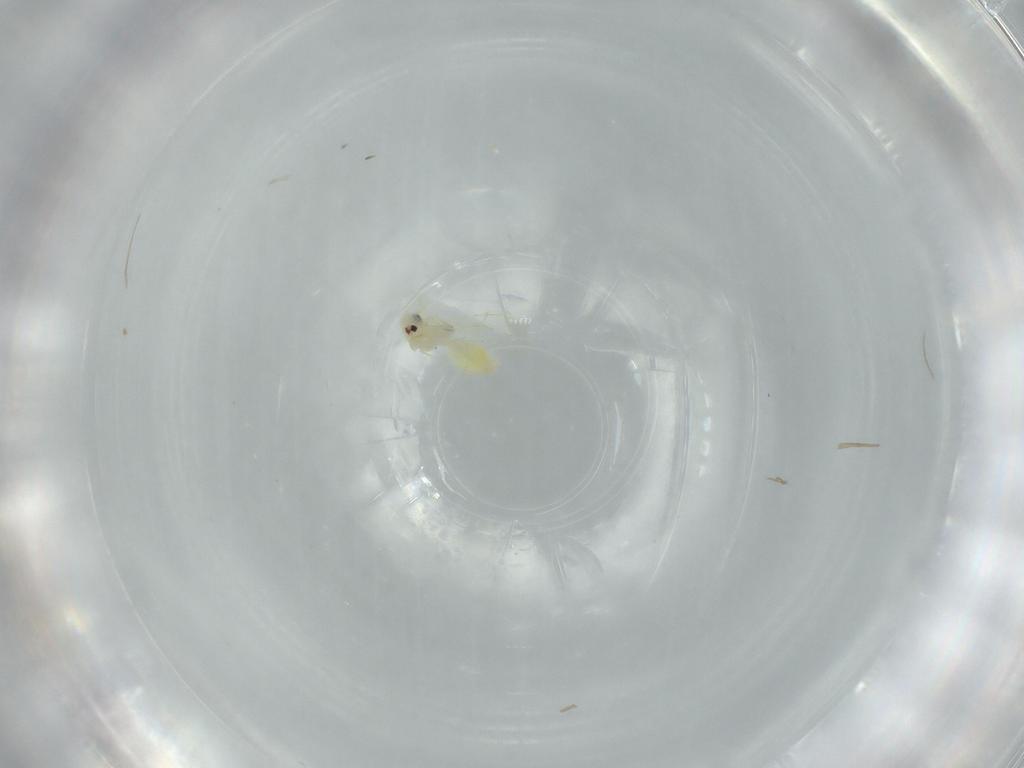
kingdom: Animalia
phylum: Arthropoda
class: Insecta
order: Hemiptera
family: Aleyrodidae
